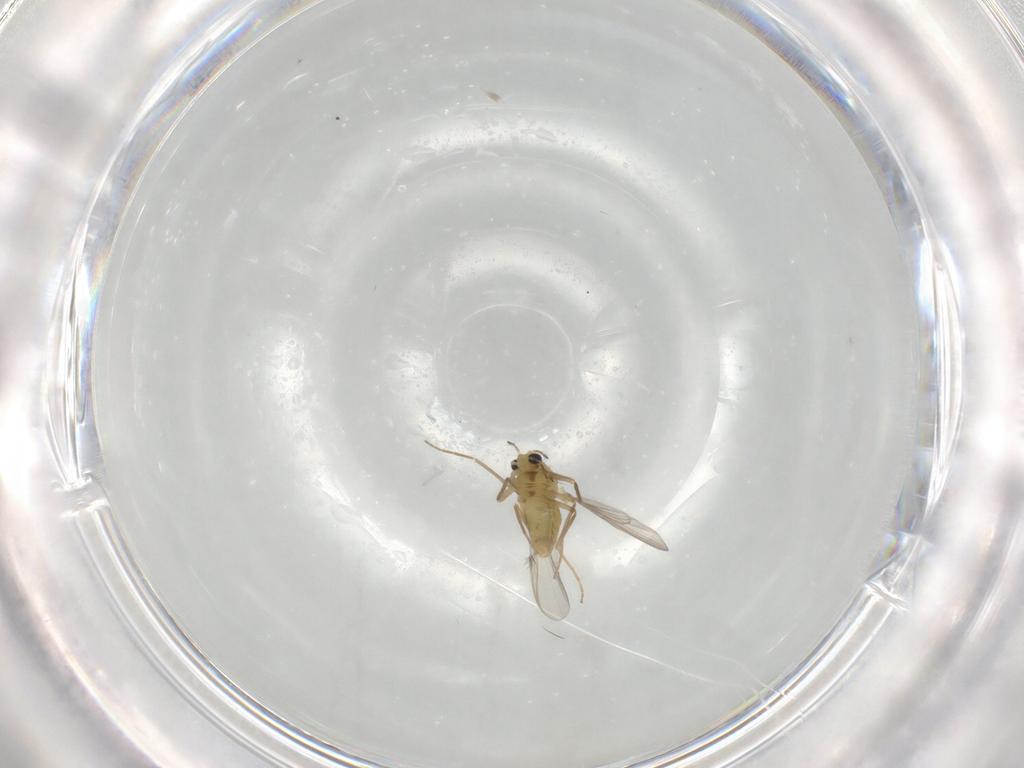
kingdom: Animalia
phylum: Arthropoda
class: Insecta
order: Diptera
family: Chironomidae
